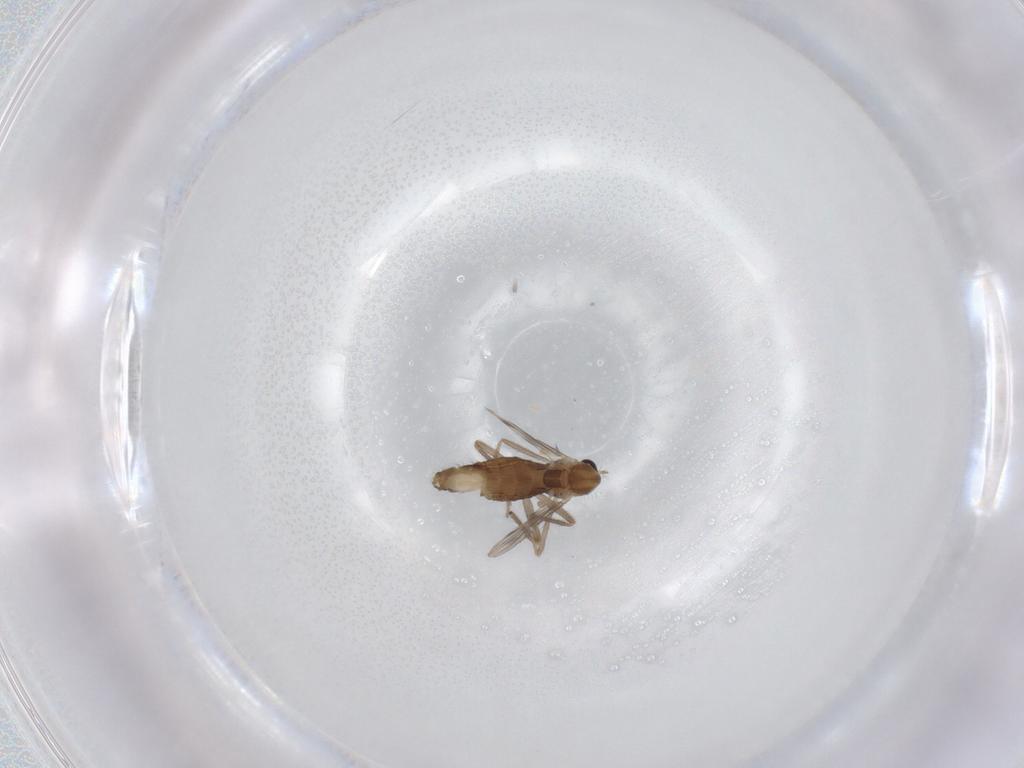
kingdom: Animalia
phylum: Arthropoda
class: Insecta
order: Diptera
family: Chironomidae
